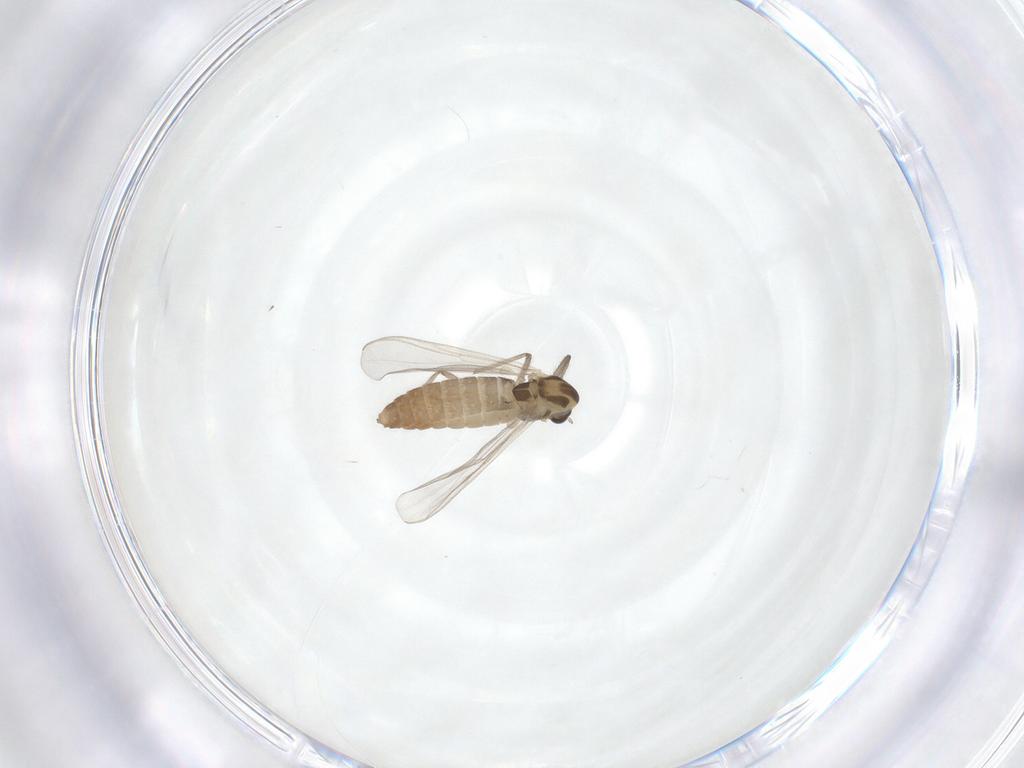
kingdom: Animalia
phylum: Arthropoda
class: Insecta
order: Diptera
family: Chironomidae
